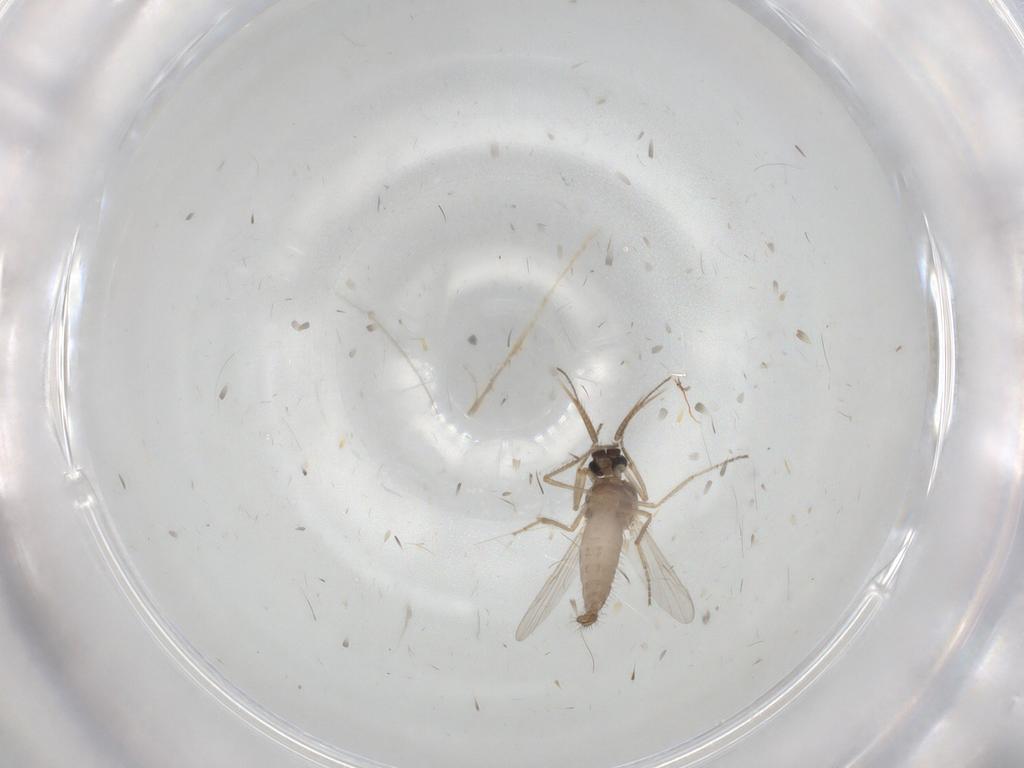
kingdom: Animalia
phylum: Arthropoda
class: Insecta
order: Diptera
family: Ceratopogonidae
